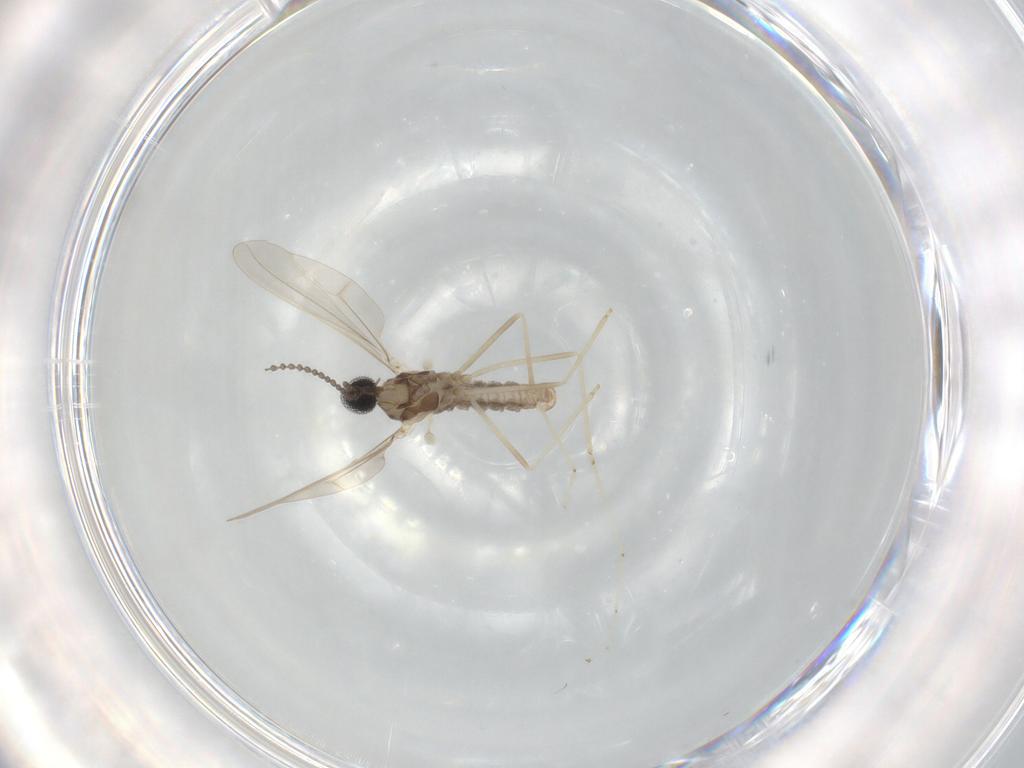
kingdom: Animalia
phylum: Arthropoda
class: Insecta
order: Diptera
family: Cecidomyiidae
